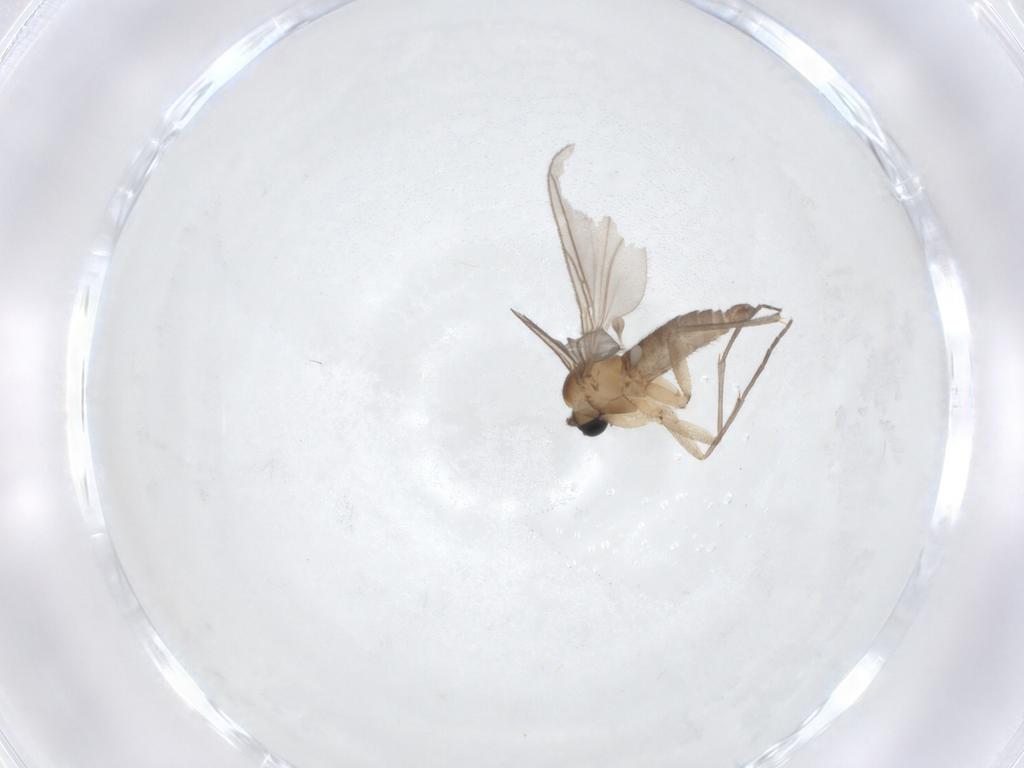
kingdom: Animalia
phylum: Arthropoda
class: Insecta
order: Diptera
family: Sciaridae
